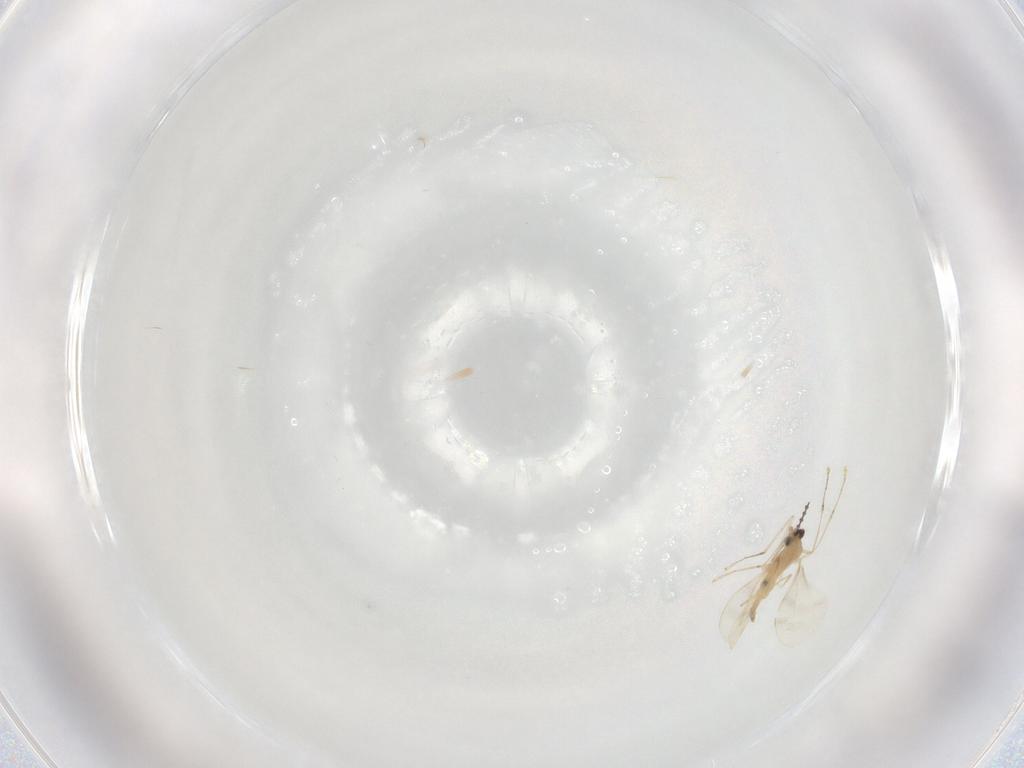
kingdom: Animalia
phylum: Arthropoda
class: Insecta
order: Diptera
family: Cecidomyiidae
